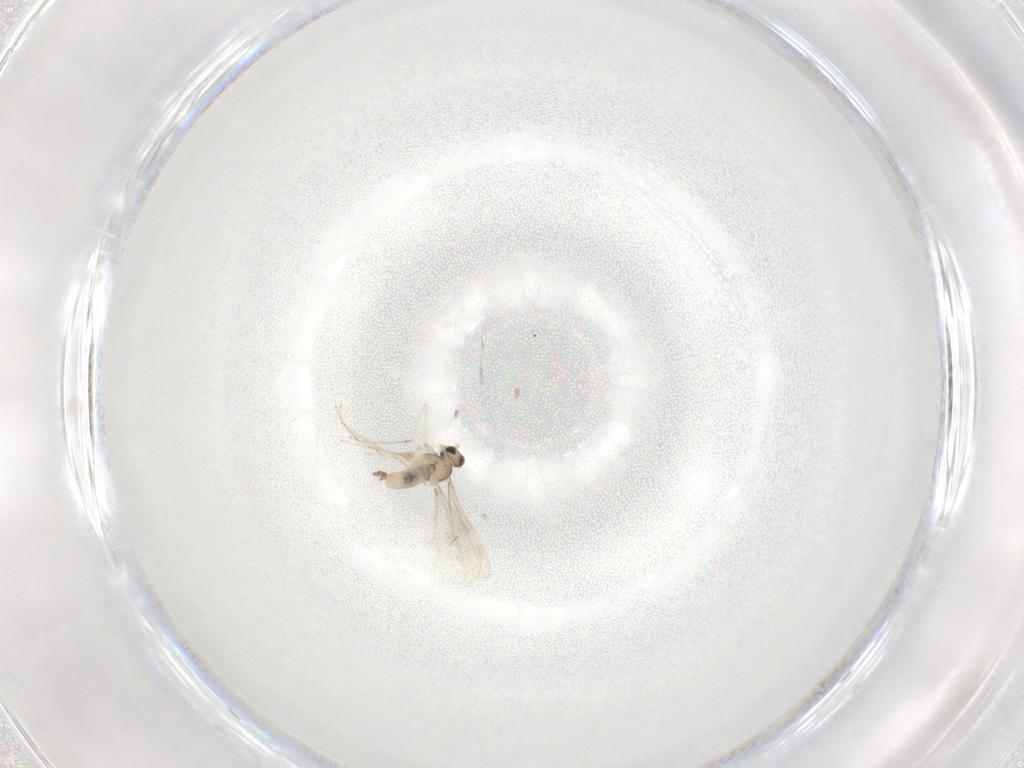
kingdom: Animalia
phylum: Arthropoda
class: Insecta
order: Diptera
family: Cecidomyiidae
